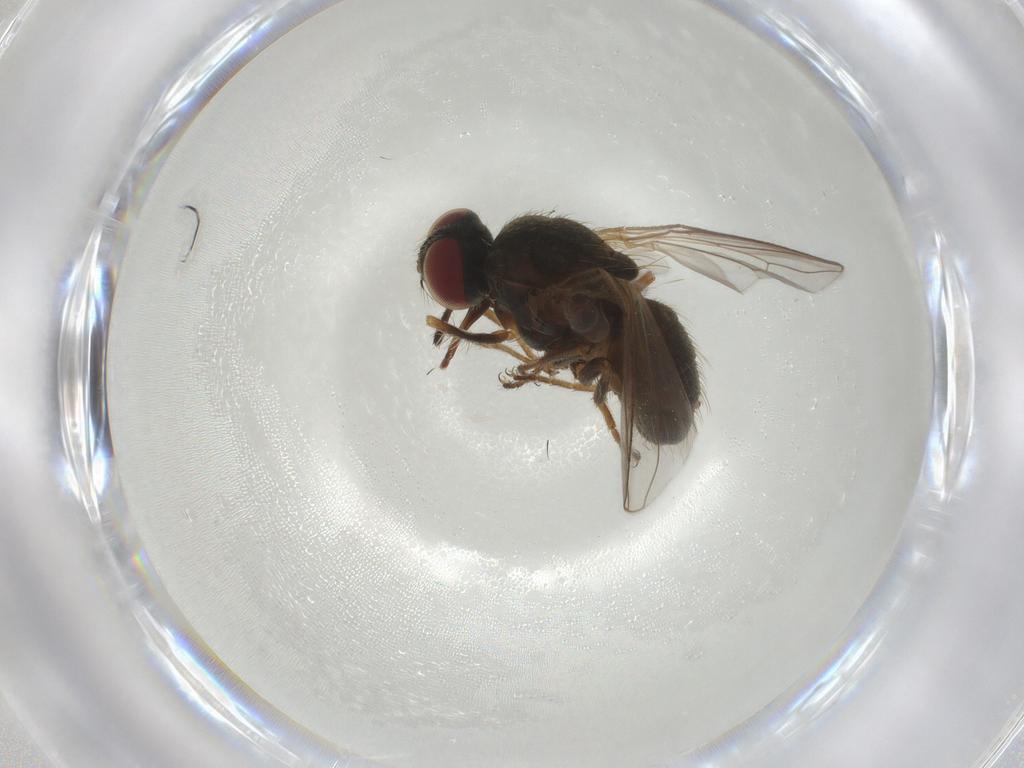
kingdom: Animalia
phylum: Arthropoda
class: Insecta
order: Diptera
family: Muscidae
